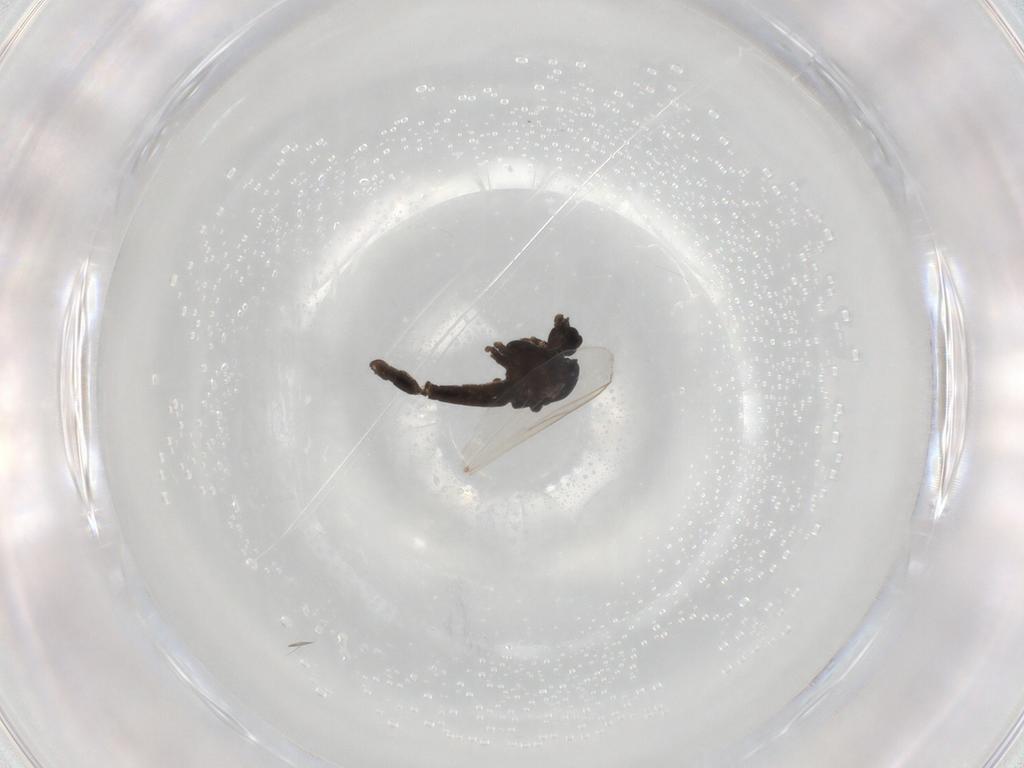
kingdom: Animalia
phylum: Arthropoda
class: Insecta
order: Diptera
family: Chironomidae
